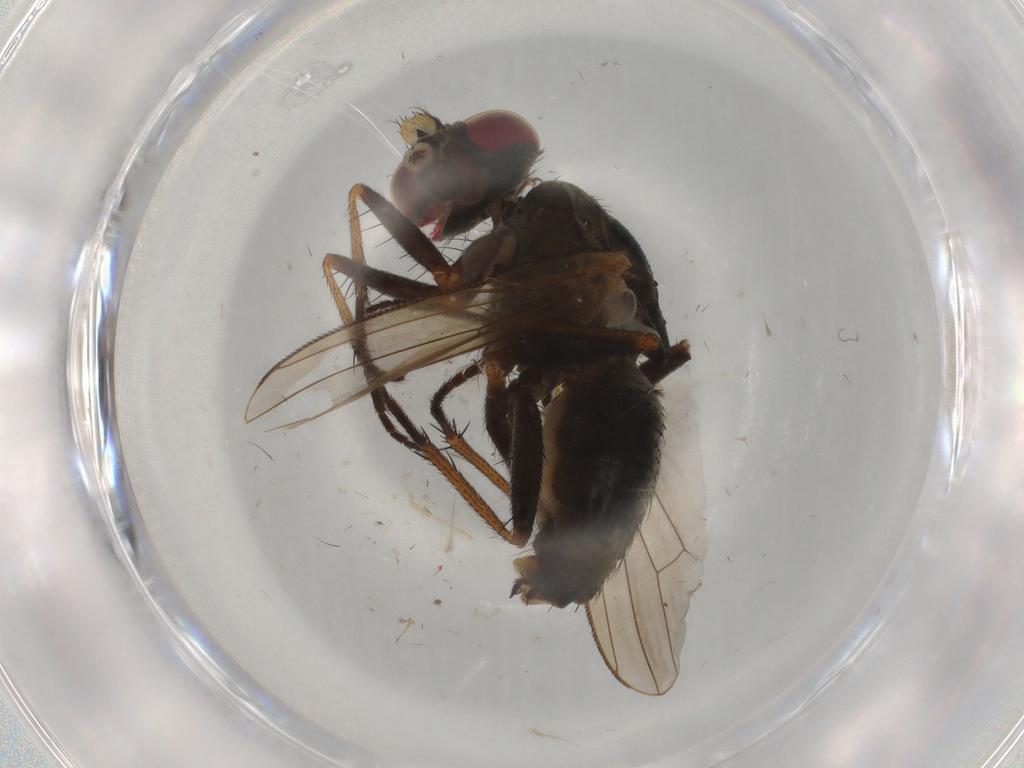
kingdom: Animalia
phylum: Arthropoda
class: Insecta
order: Diptera
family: Muscidae
